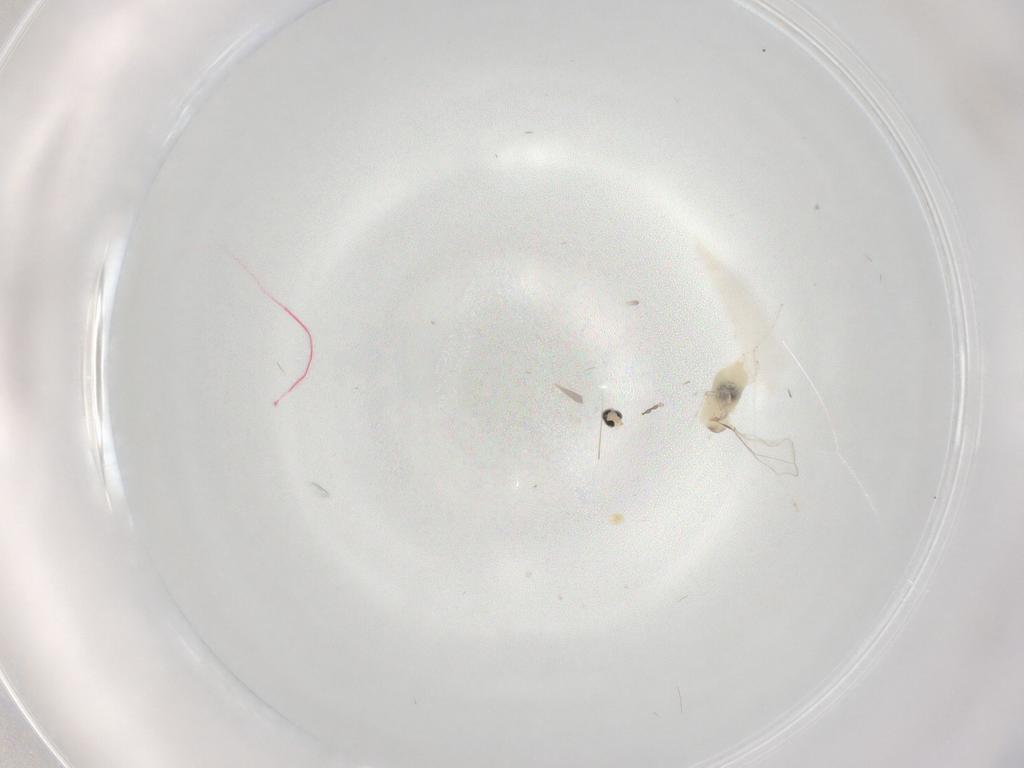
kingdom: Animalia
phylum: Arthropoda
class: Insecta
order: Diptera
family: Cecidomyiidae
